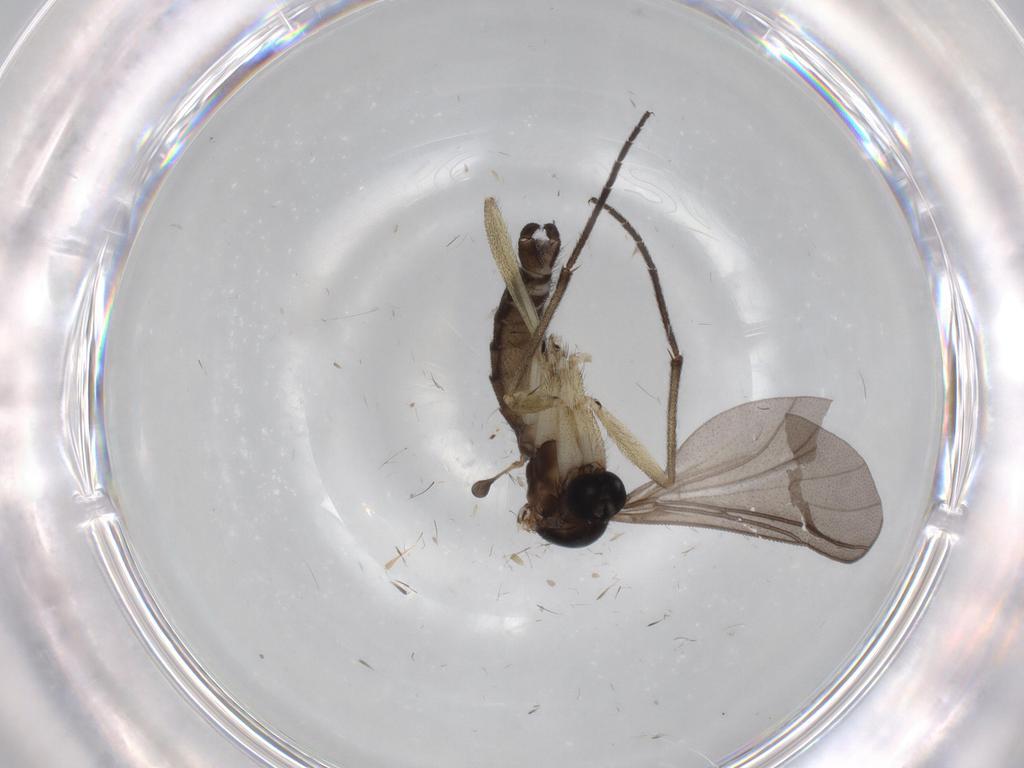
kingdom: Animalia
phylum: Arthropoda
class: Insecta
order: Diptera
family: Sciaridae
